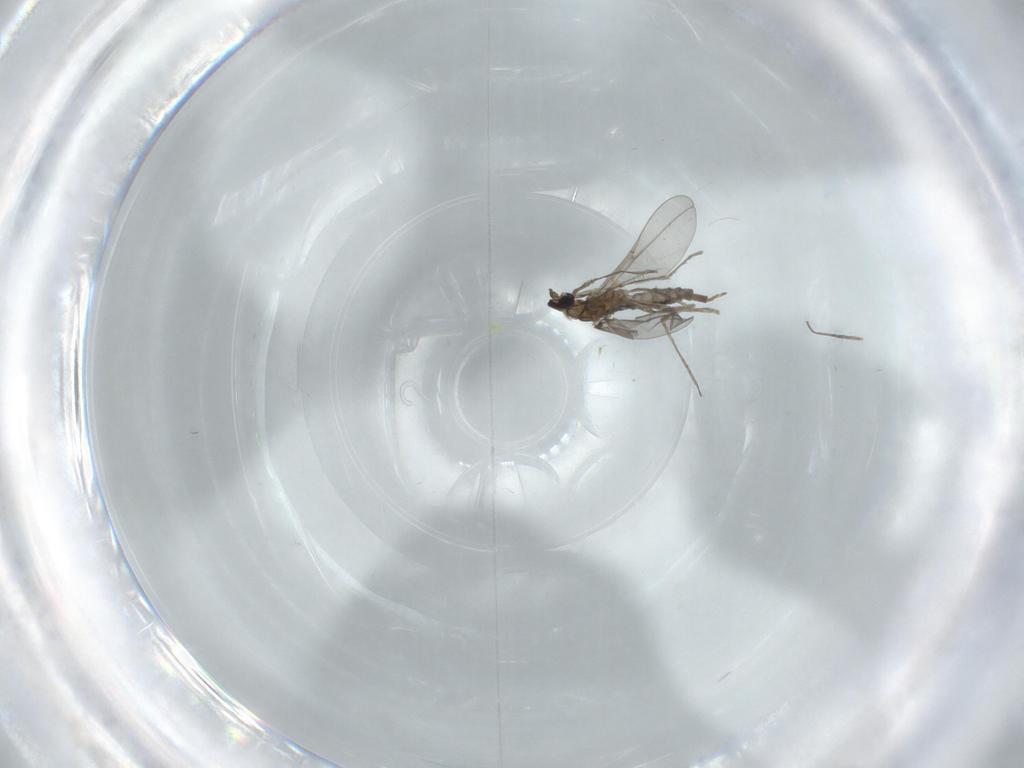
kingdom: Animalia
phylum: Arthropoda
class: Insecta
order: Diptera
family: Cecidomyiidae
